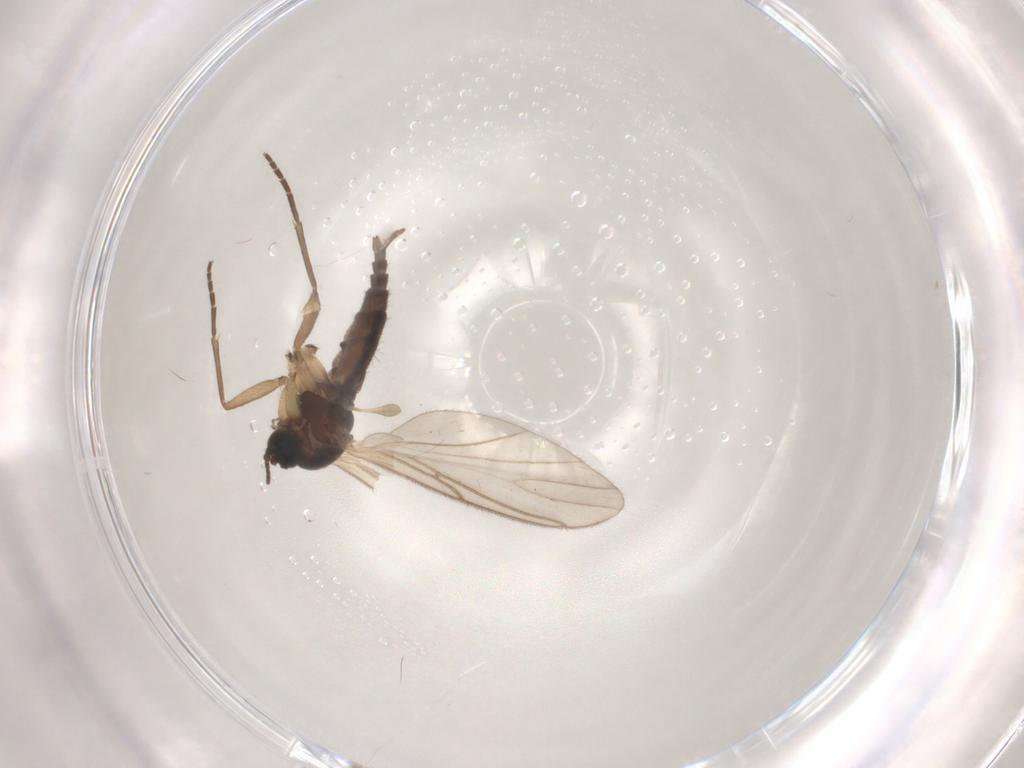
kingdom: Animalia
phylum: Arthropoda
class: Insecta
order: Diptera
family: Sciaridae
